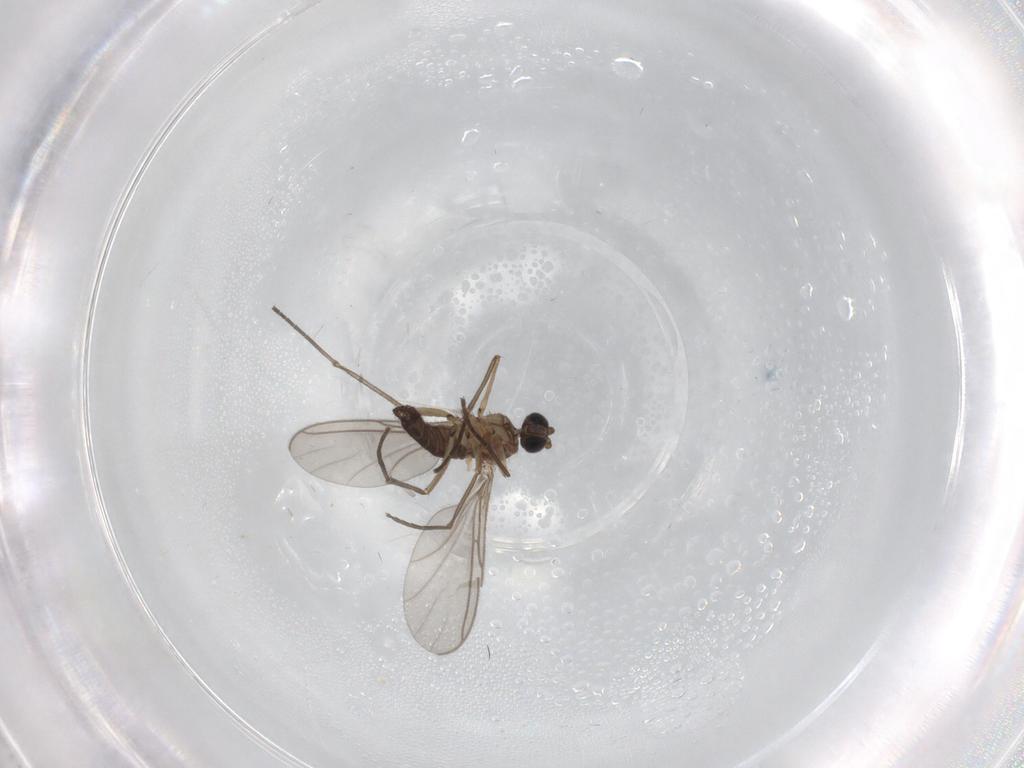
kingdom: Animalia
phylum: Arthropoda
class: Insecta
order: Diptera
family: Sciaridae
